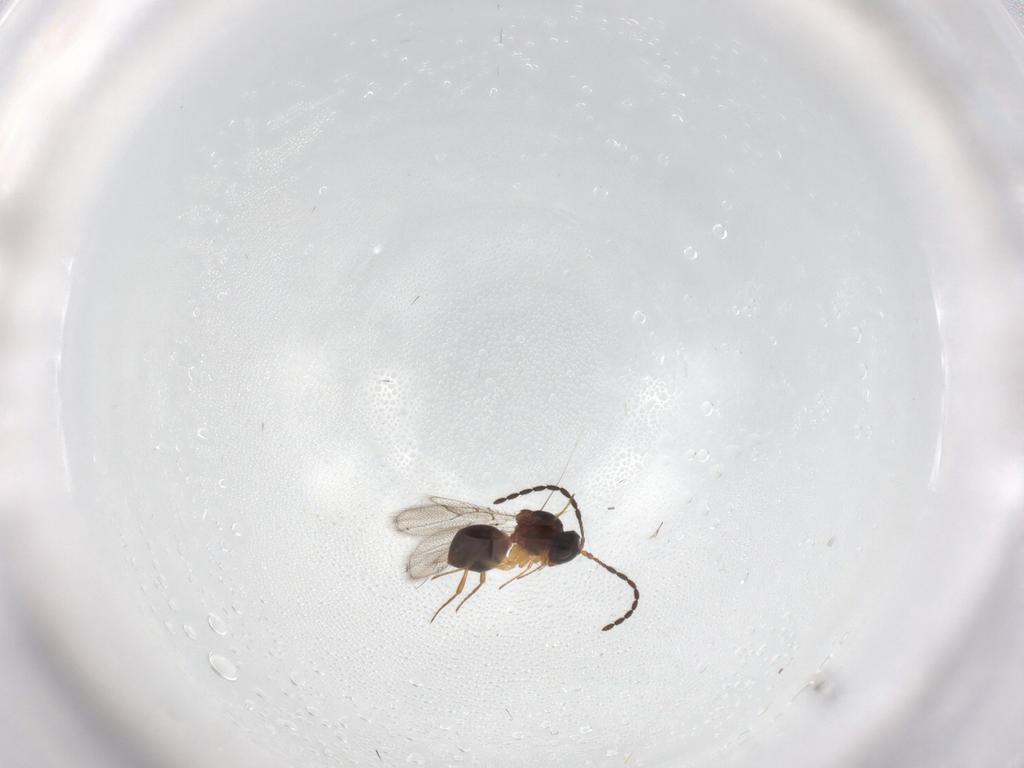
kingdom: Animalia
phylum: Arthropoda
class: Insecta
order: Hymenoptera
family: Figitidae
